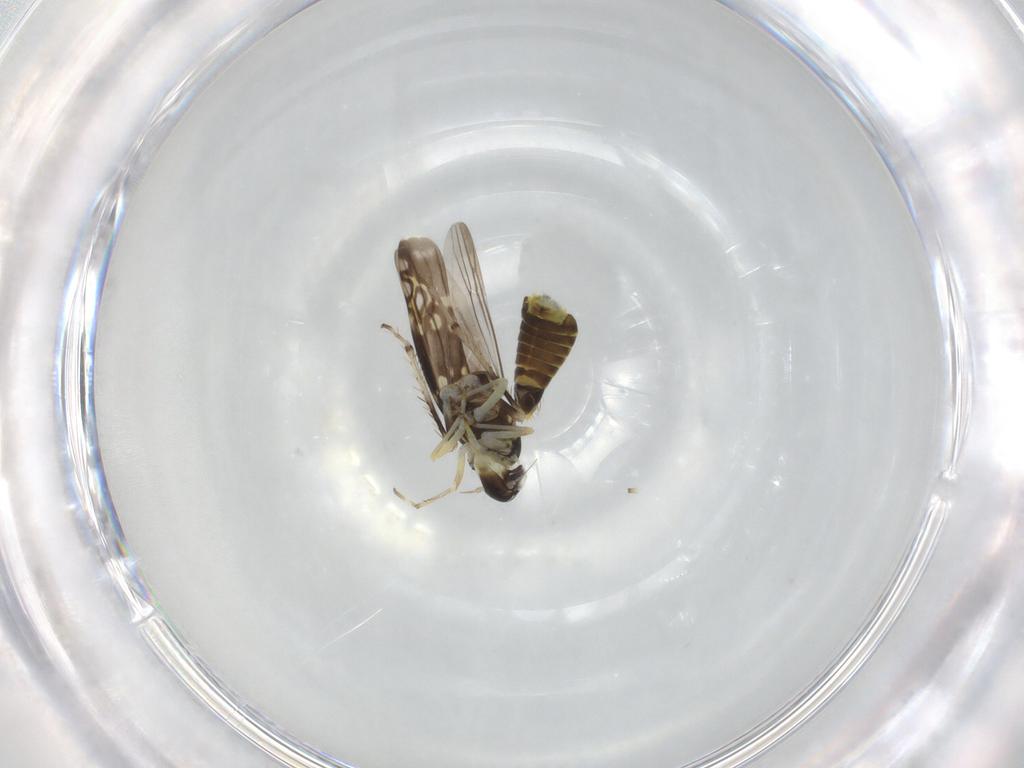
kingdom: Animalia
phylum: Arthropoda
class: Insecta
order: Hemiptera
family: Cicadellidae
